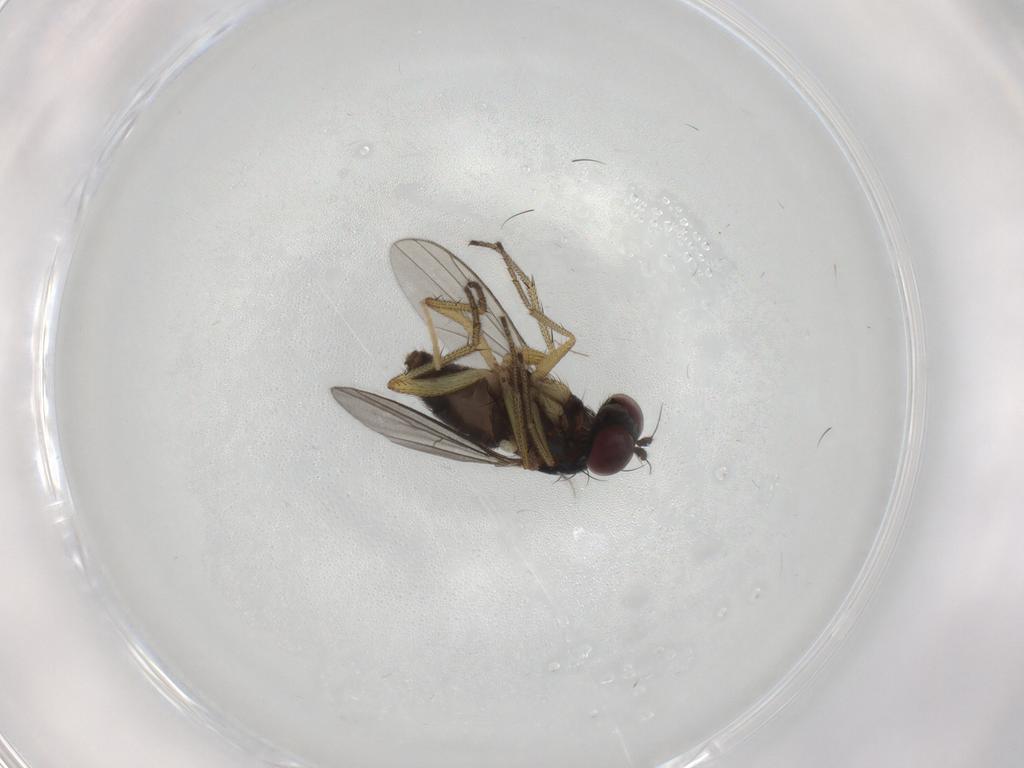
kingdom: Animalia
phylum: Arthropoda
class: Insecta
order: Diptera
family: Chironomidae
